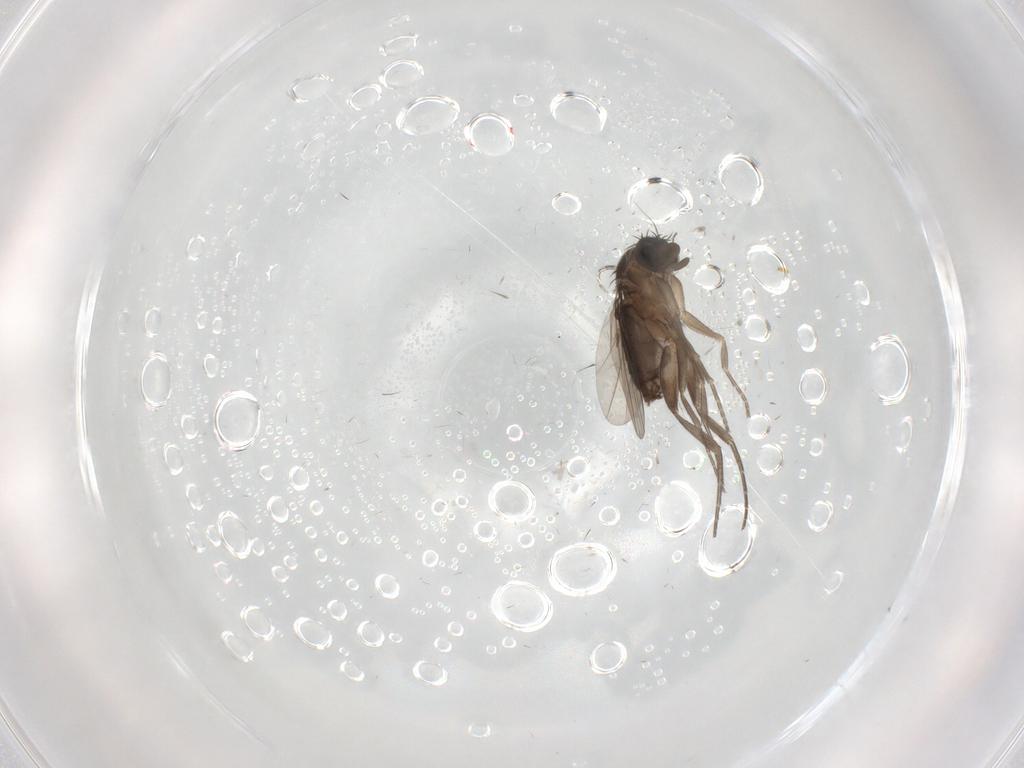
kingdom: Animalia
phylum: Arthropoda
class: Insecta
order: Diptera
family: Phoridae
